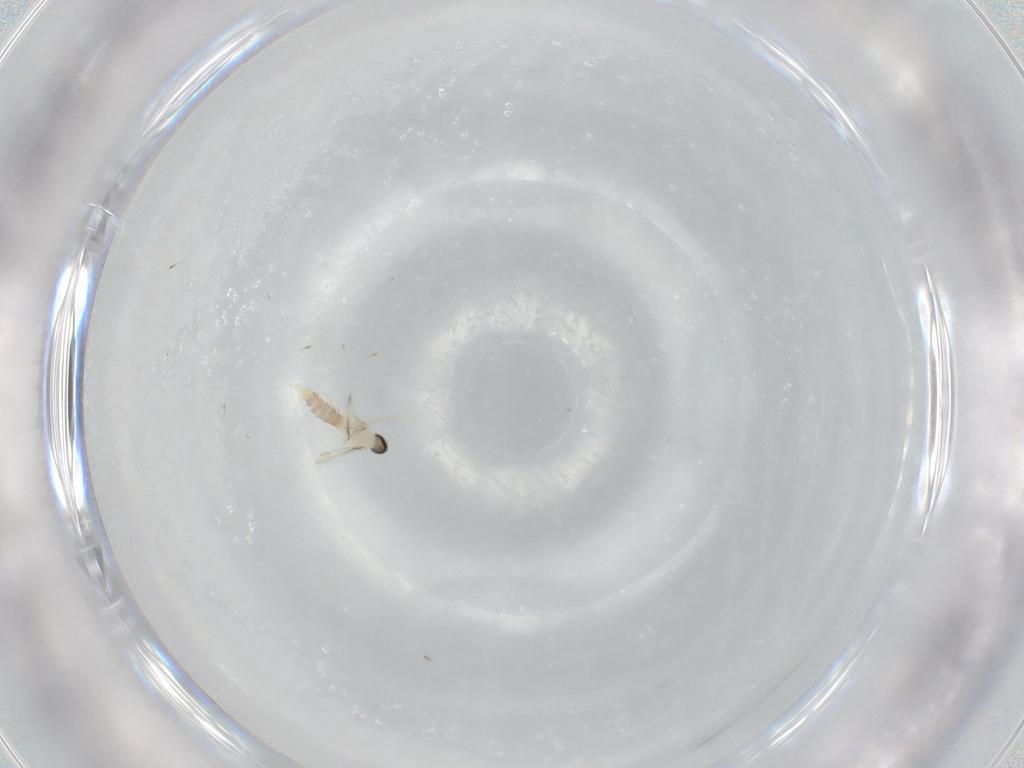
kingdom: Animalia
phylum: Arthropoda
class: Insecta
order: Diptera
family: Cecidomyiidae
